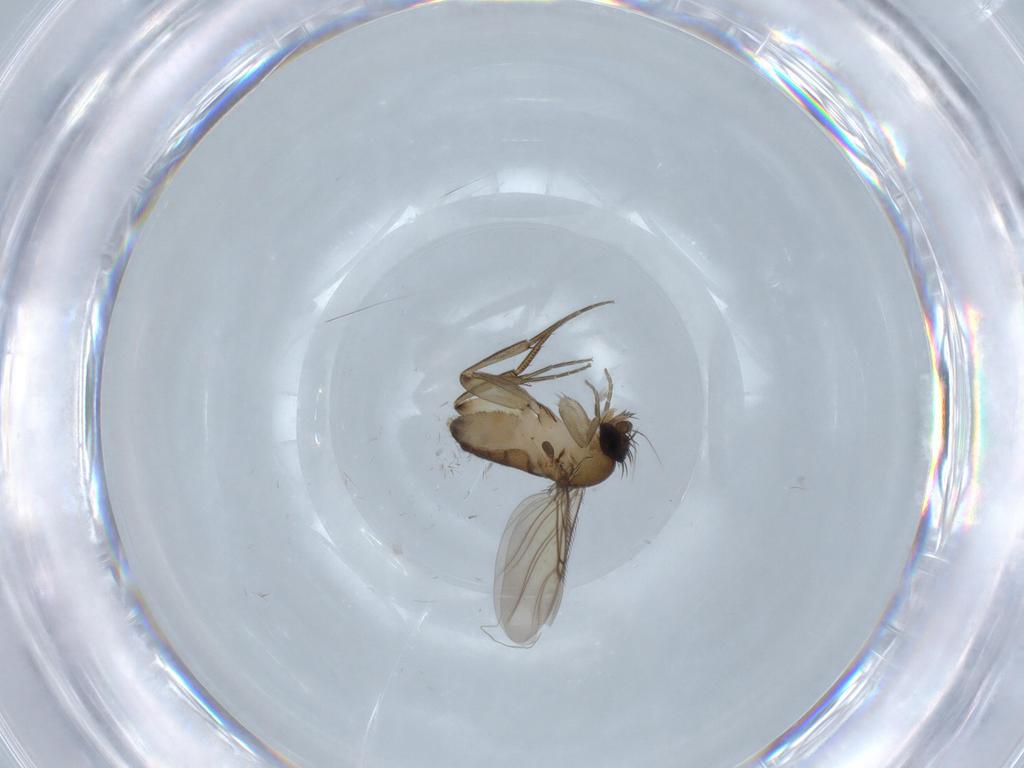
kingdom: Animalia
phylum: Arthropoda
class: Insecta
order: Diptera
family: Phoridae
